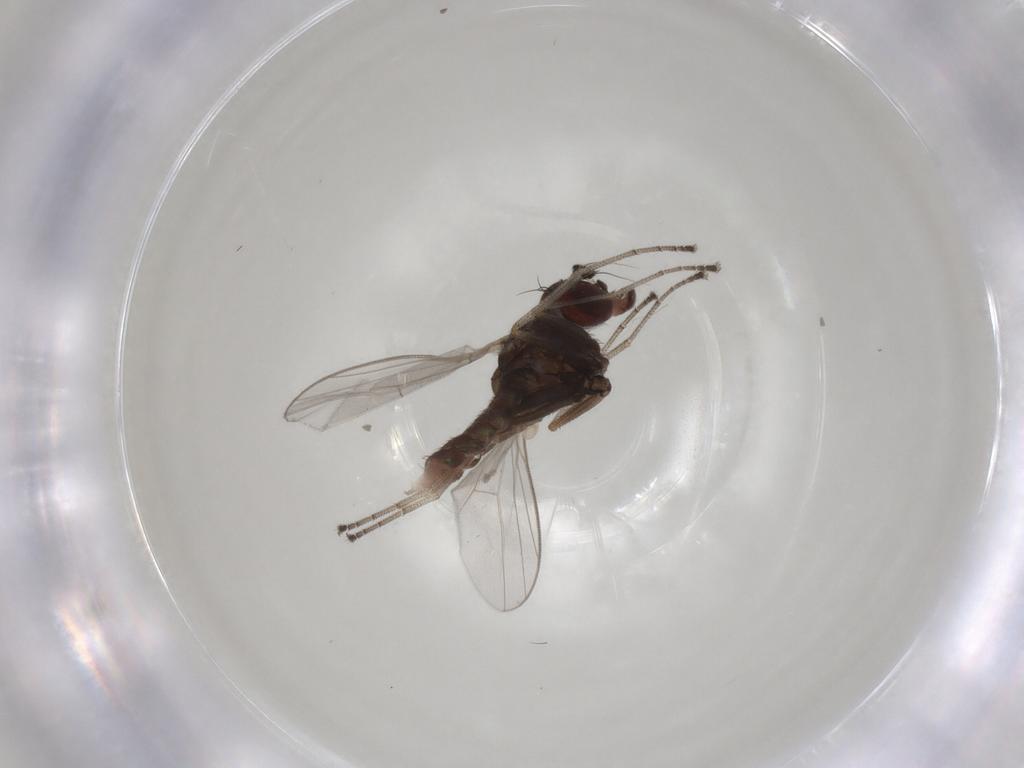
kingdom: Animalia
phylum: Arthropoda
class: Insecta
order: Diptera
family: Dolichopodidae
